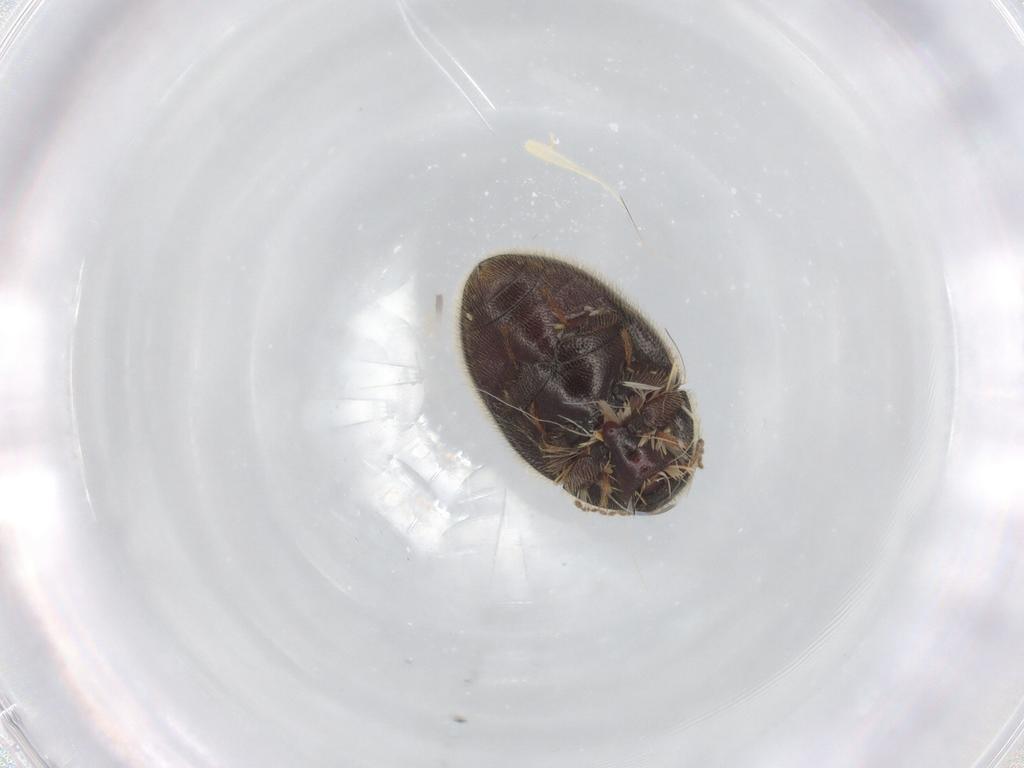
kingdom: Animalia
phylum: Arthropoda
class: Insecta
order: Coleoptera
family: Limnichidae
